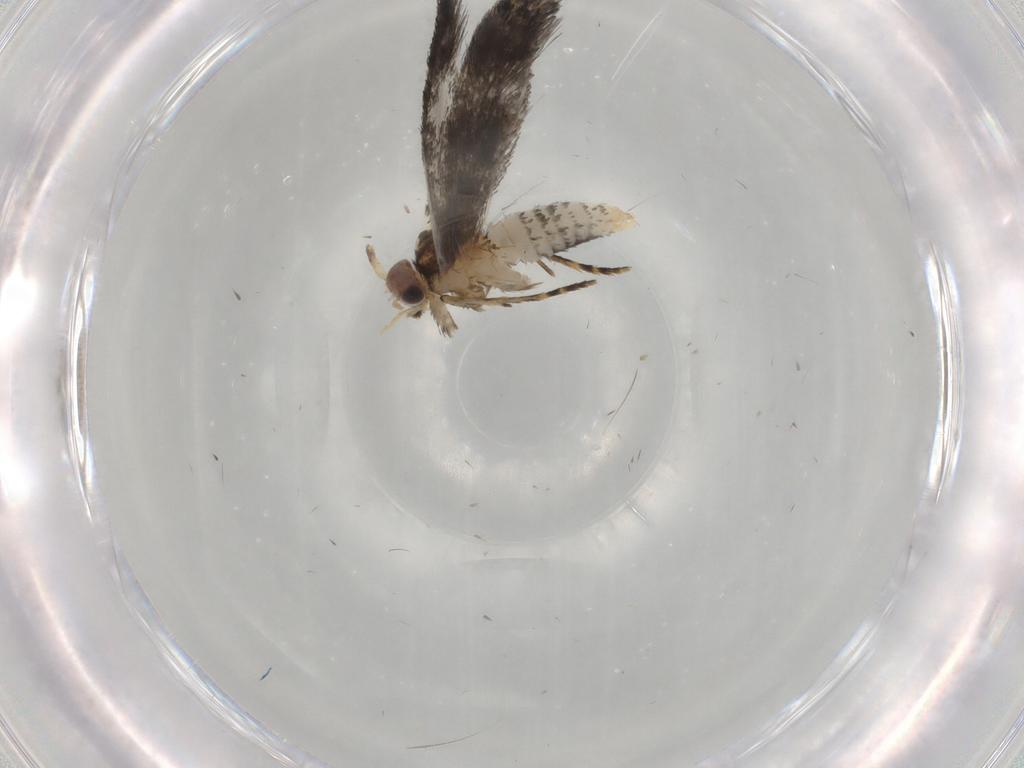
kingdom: Animalia
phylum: Arthropoda
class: Insecta
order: Lepidoptera
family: Tineidae
